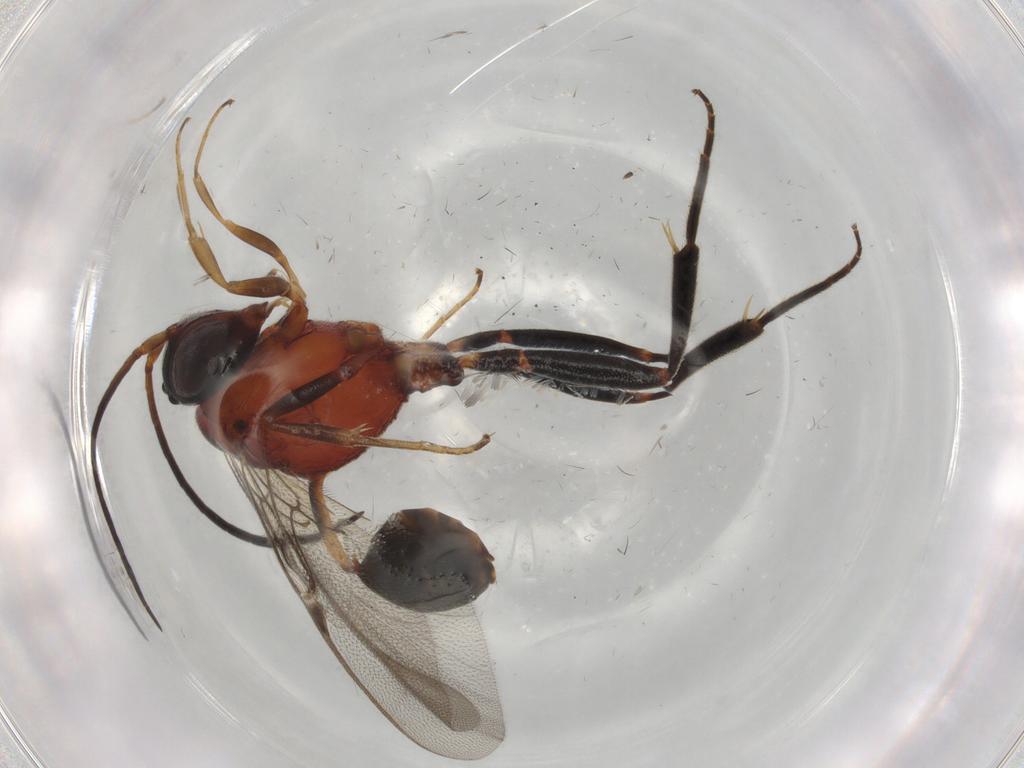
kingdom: Animalia
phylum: Arthropoda
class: Insecta
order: Hymenoptera
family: Evaniidae
